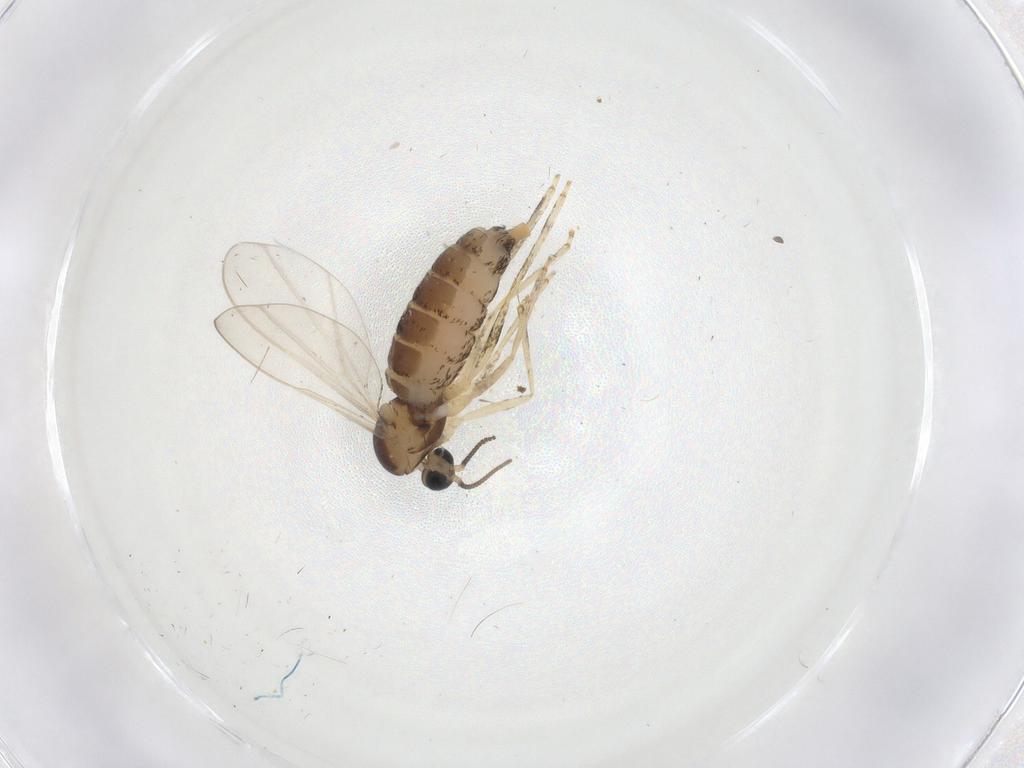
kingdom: Animalia
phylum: Arthropoda
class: Insecta
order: Diptera
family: Cecidomyiidae
